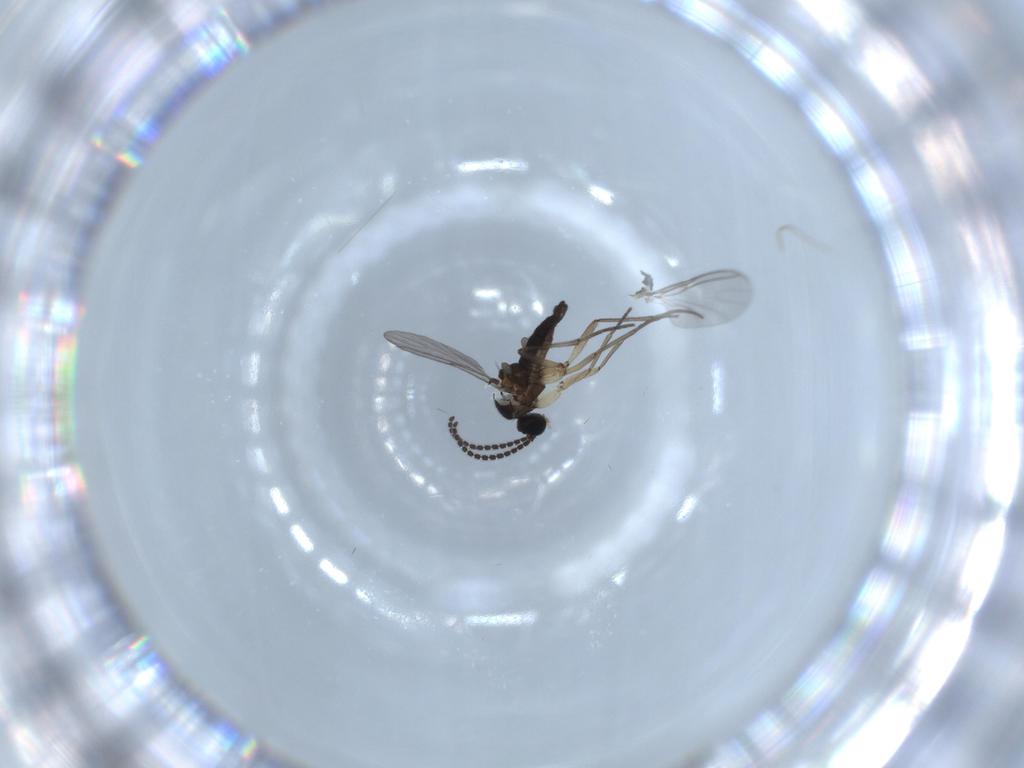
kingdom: Animalia
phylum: Arthropoda
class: Insecta
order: Diptera
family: Sciaridae
